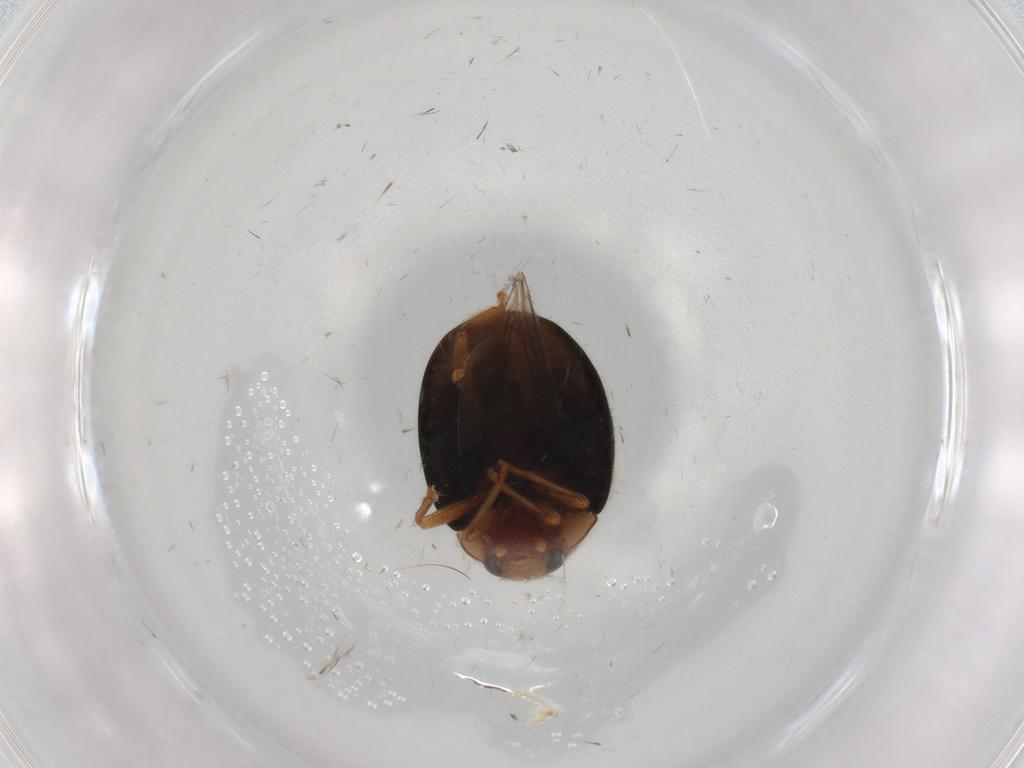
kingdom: Animalia
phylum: Arthropoda
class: Insecta
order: Coleoptera
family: Coccinellidae
